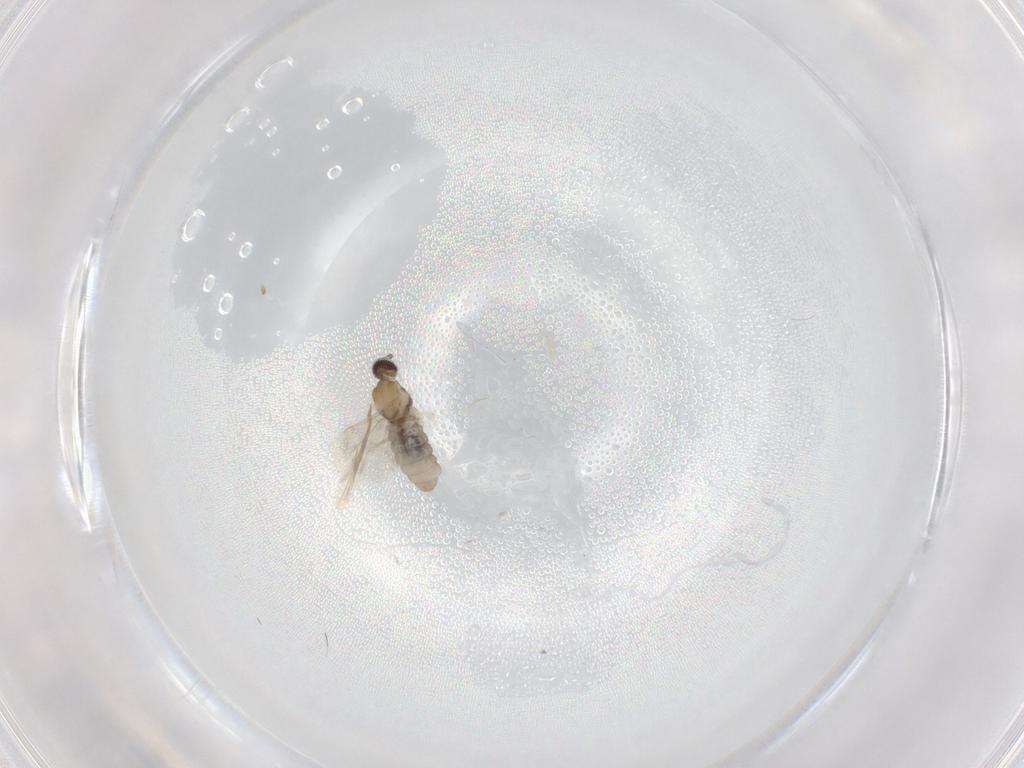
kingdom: Animalia
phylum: Arthropoda
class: Insecta
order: Diptera
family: Cecidomyiidae
